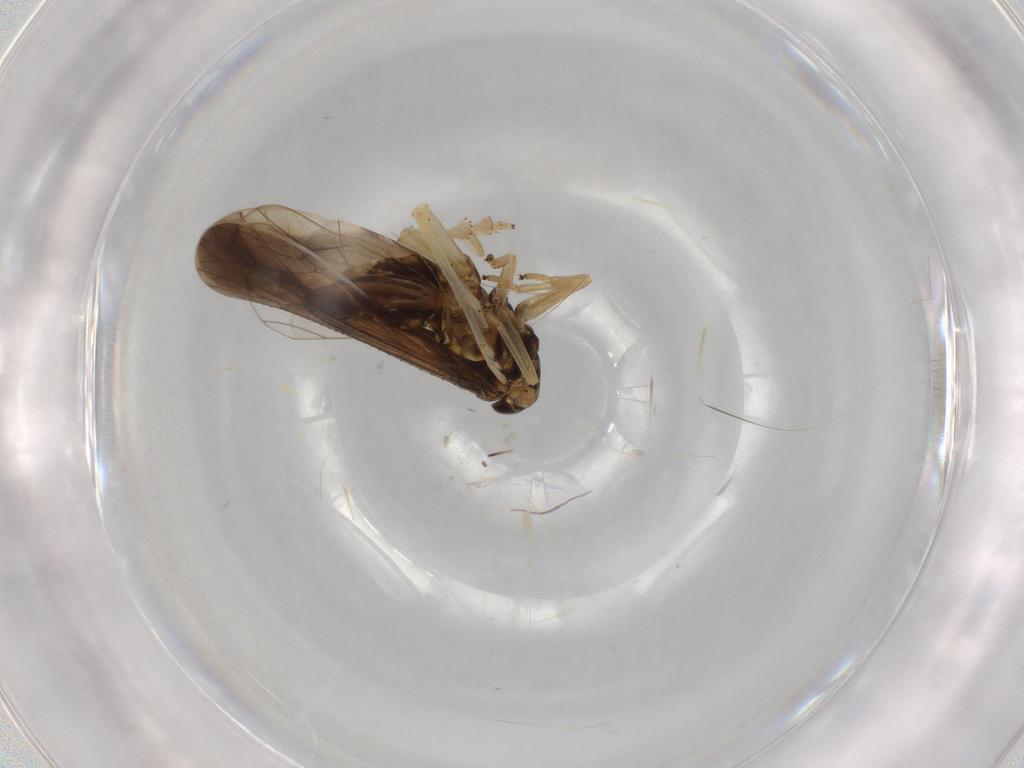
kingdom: Animalia
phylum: Arthropoda
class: Insecta
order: Hemiptera
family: Delphacidae
